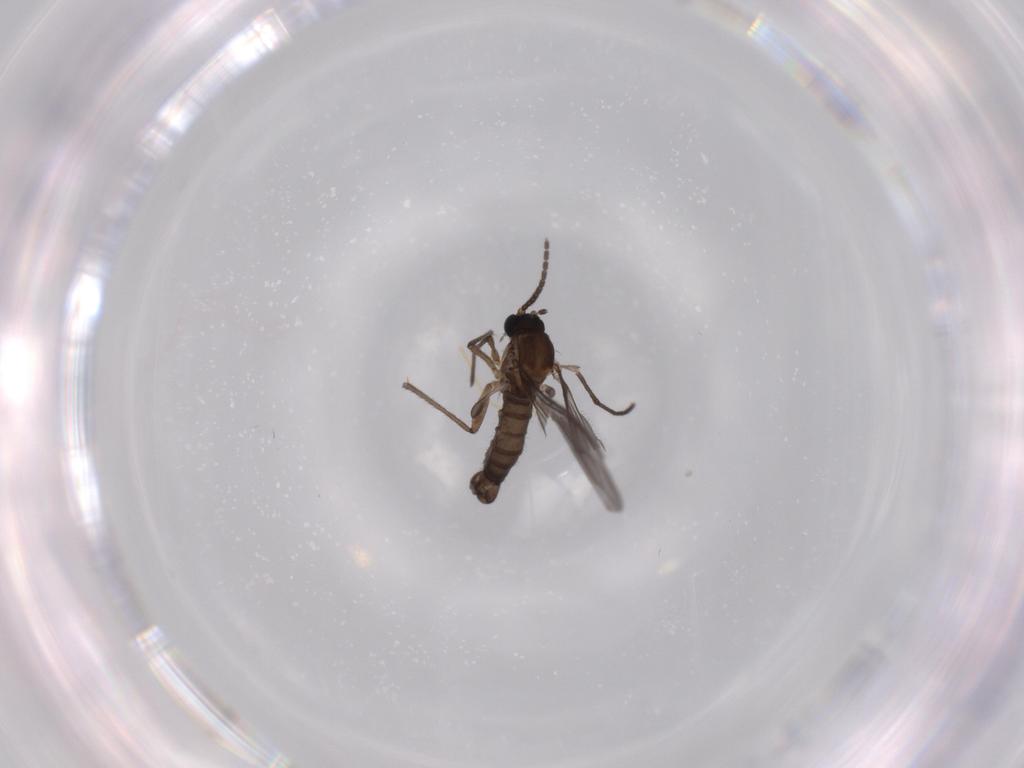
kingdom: Animalia
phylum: Arthropoda
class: Insecta
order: Diptera
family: Sciaridae
